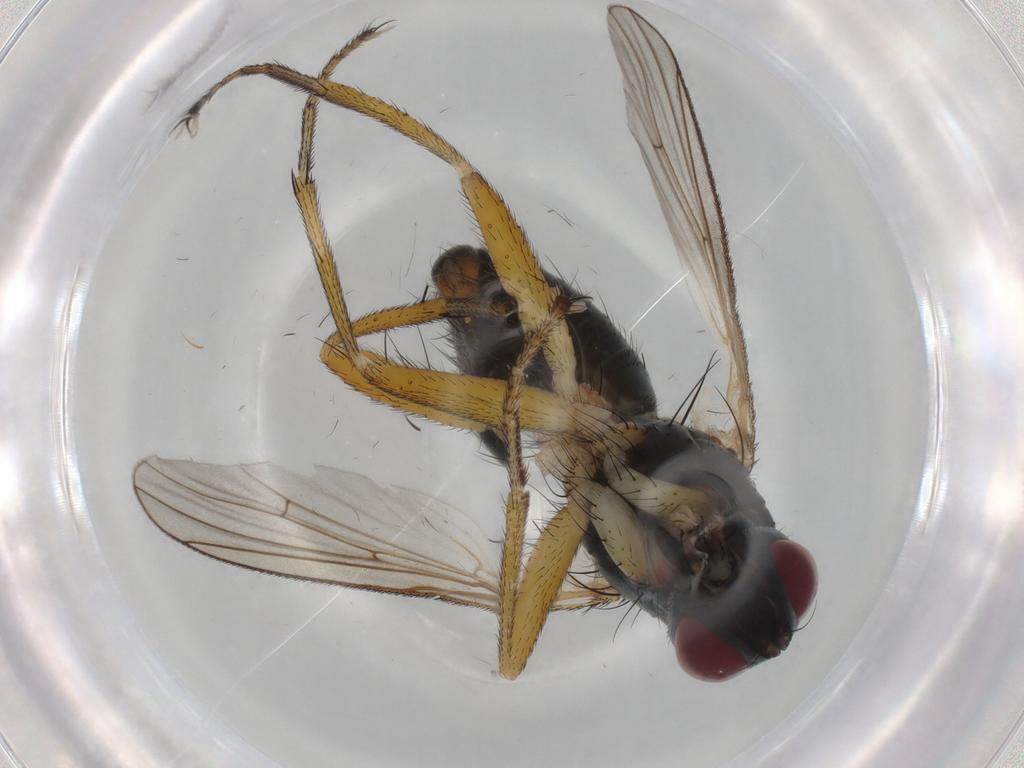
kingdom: Animalia
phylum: Arthropoda
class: Insecta
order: Diptera
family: Muscidae
